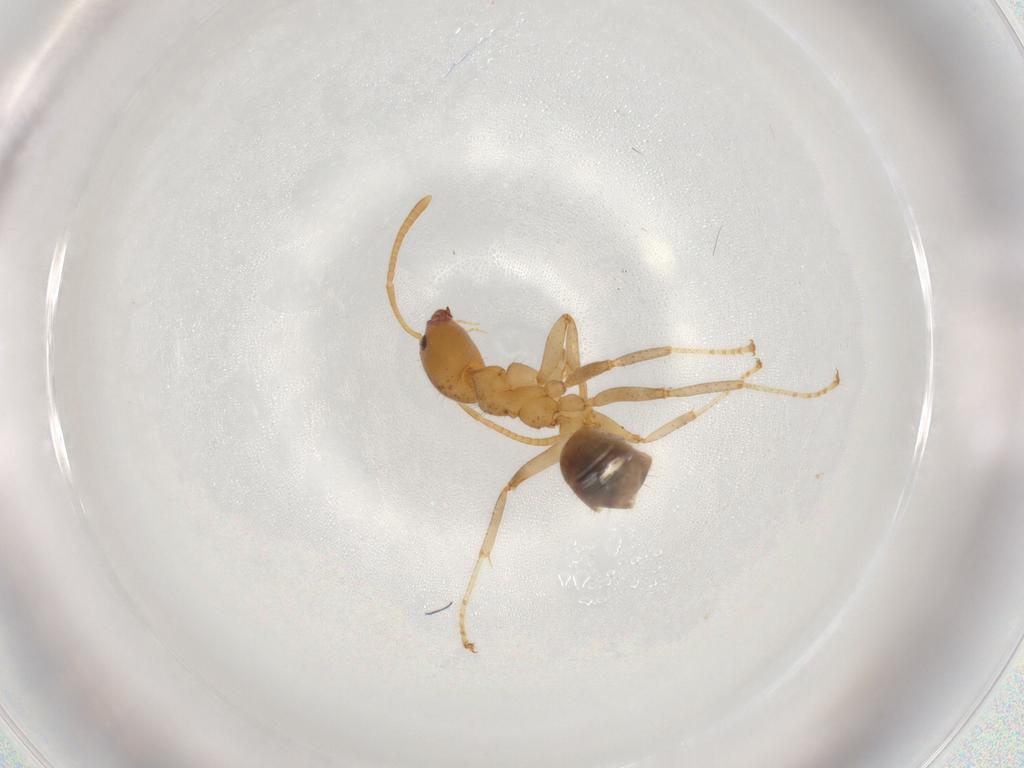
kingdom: Animalia
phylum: Arthropoda
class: Insecta
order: Hymenoptera
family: Formicidae
